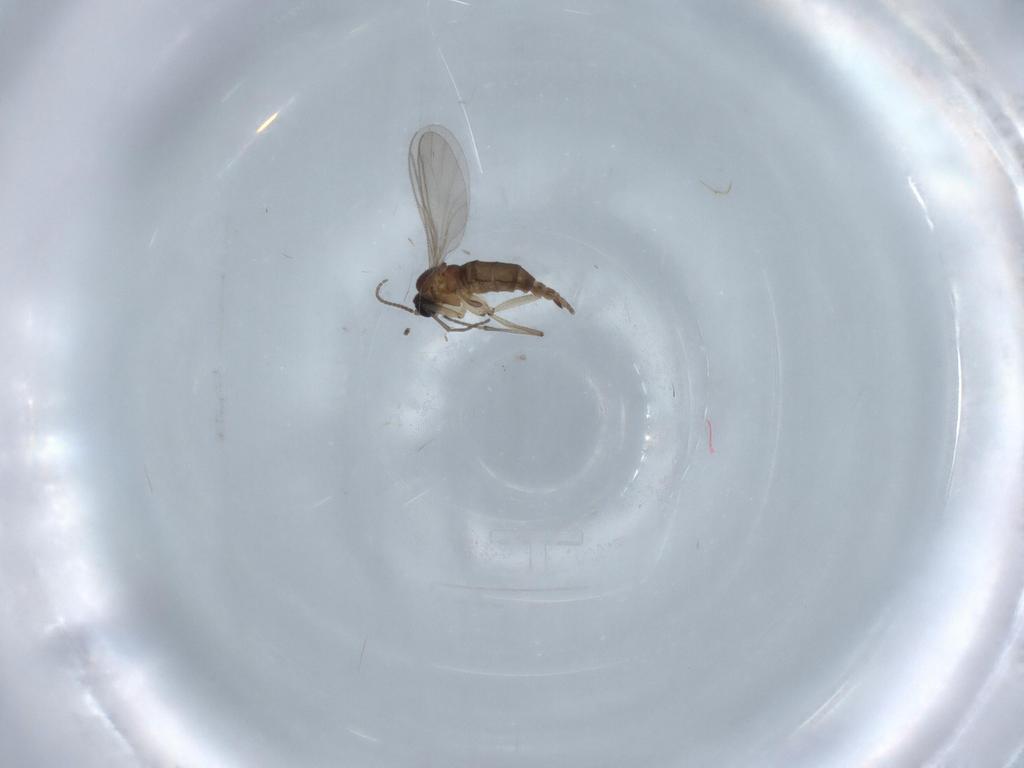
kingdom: Animalia
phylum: Arthropoda
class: Insecta
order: Diptera
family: Sciaridae
